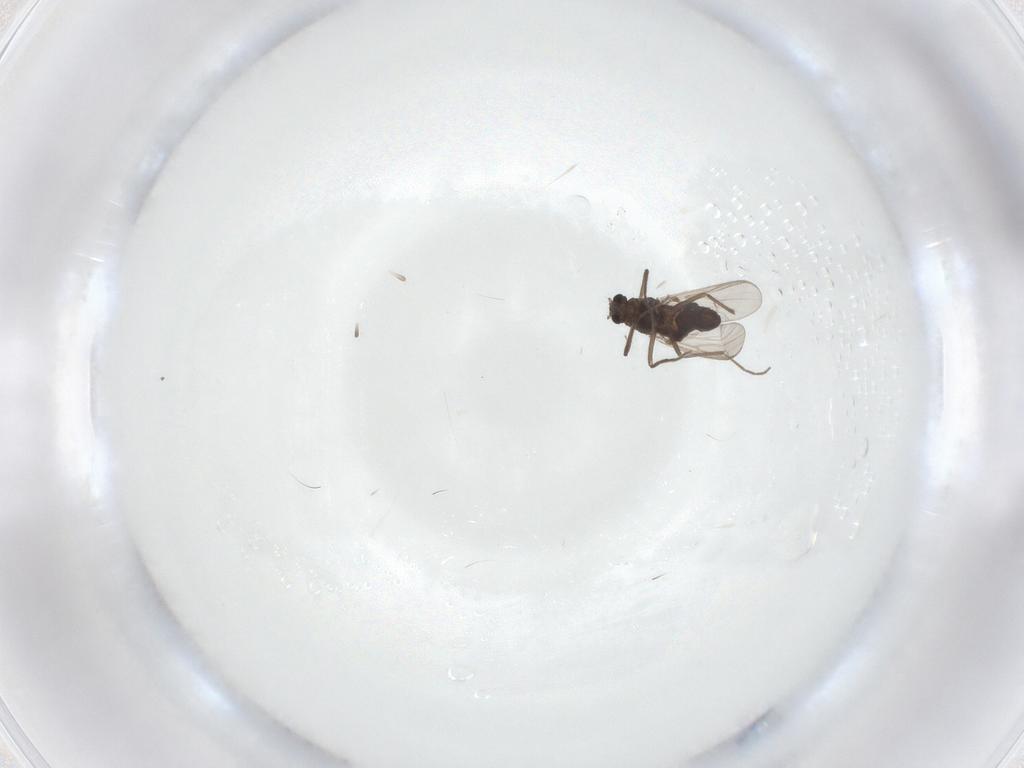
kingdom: Animalia
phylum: Arthropoda
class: Insecta
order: Diptera
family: Chironomidae
